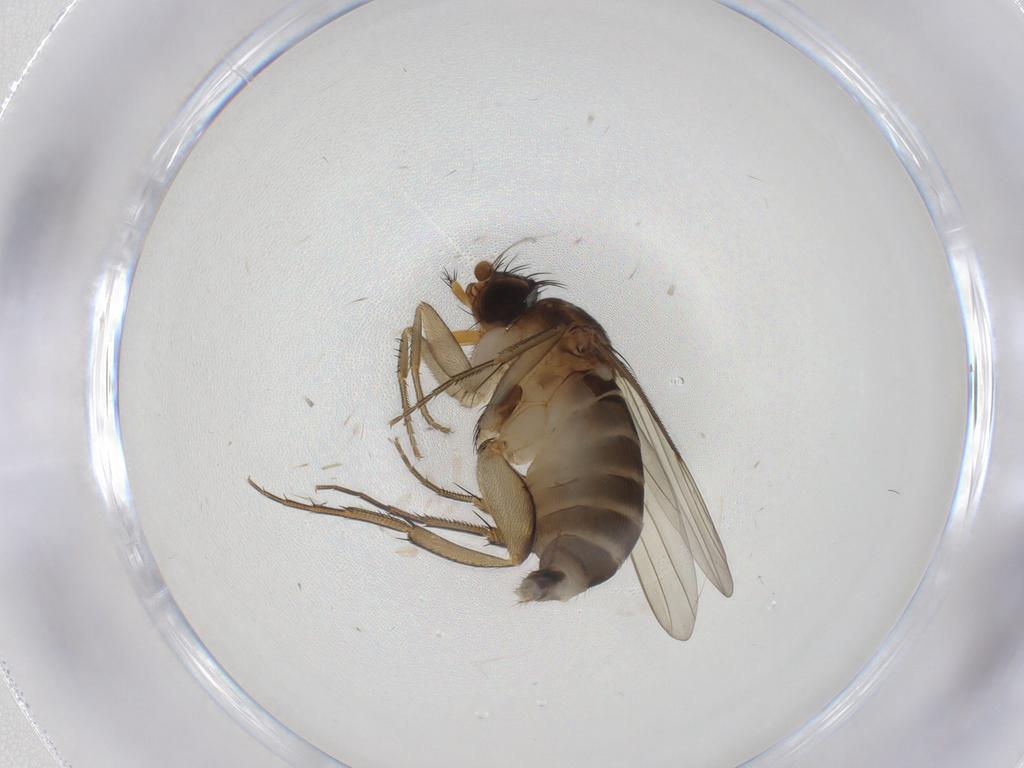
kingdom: Animalia
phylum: Arthropoda
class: Insecta
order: Diptera
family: Phoridae
